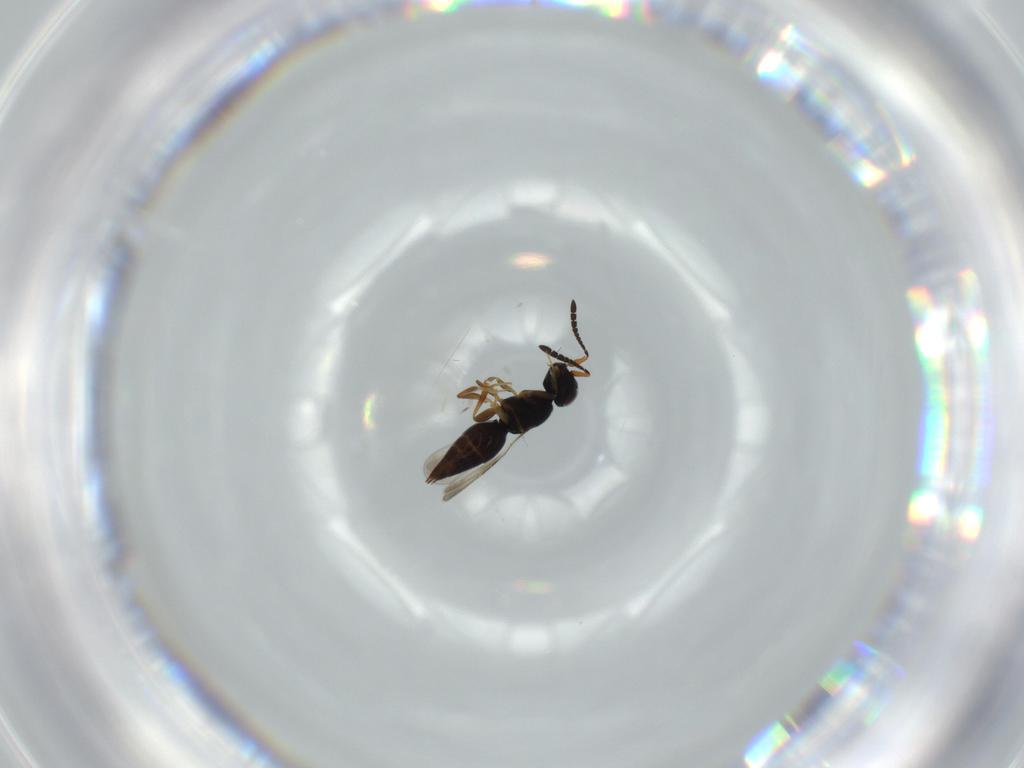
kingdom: Animalia
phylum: Arthropoda
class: Insecta
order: Hymenoptera
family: Ceraphronidae
